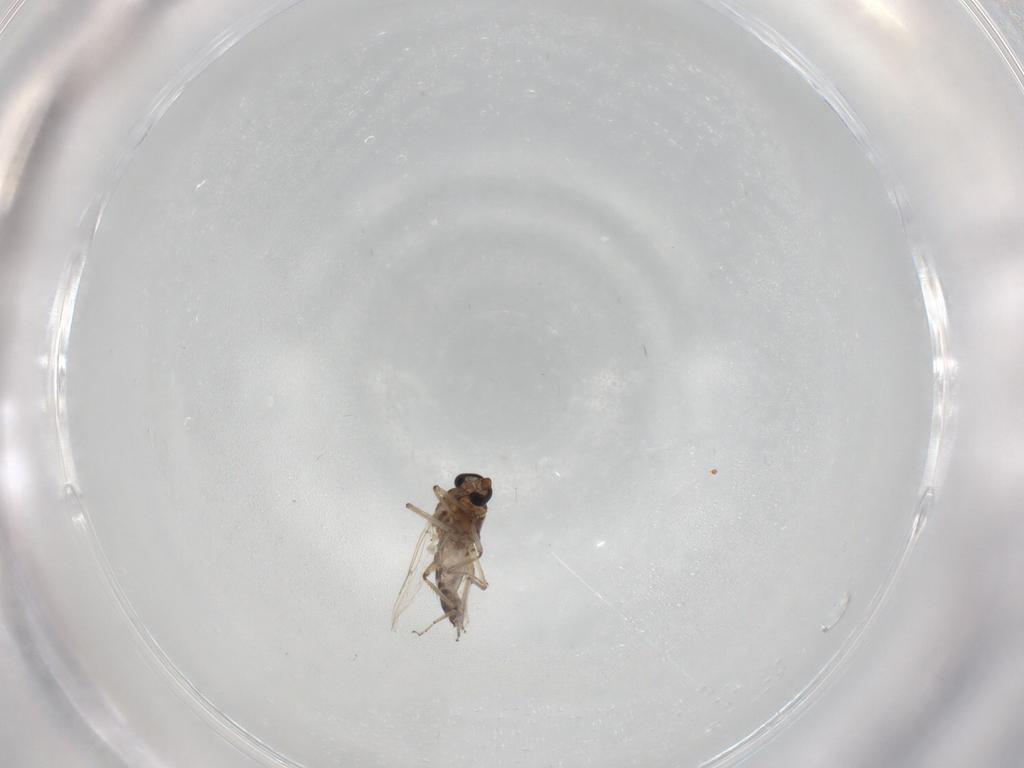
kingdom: Animalia
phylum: Arthropoda
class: Insecta
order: Diptera
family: Ceratopogonidae
